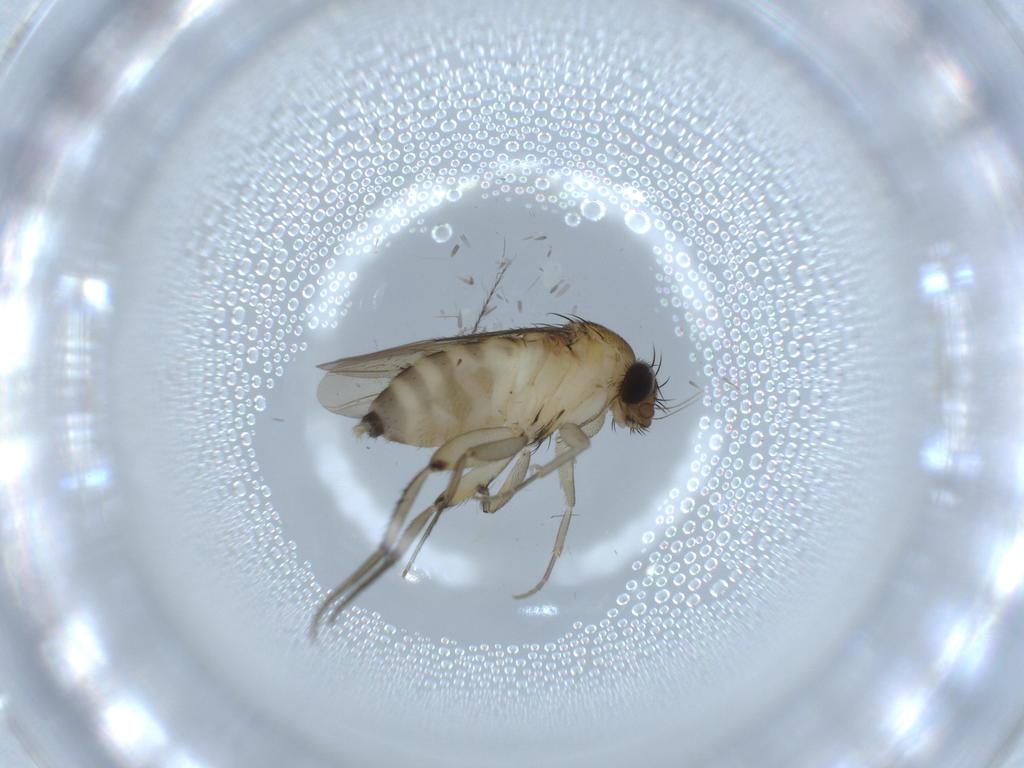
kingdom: Animalia
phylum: Arthropoda
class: Insecta
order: Diptera
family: Phoridae
